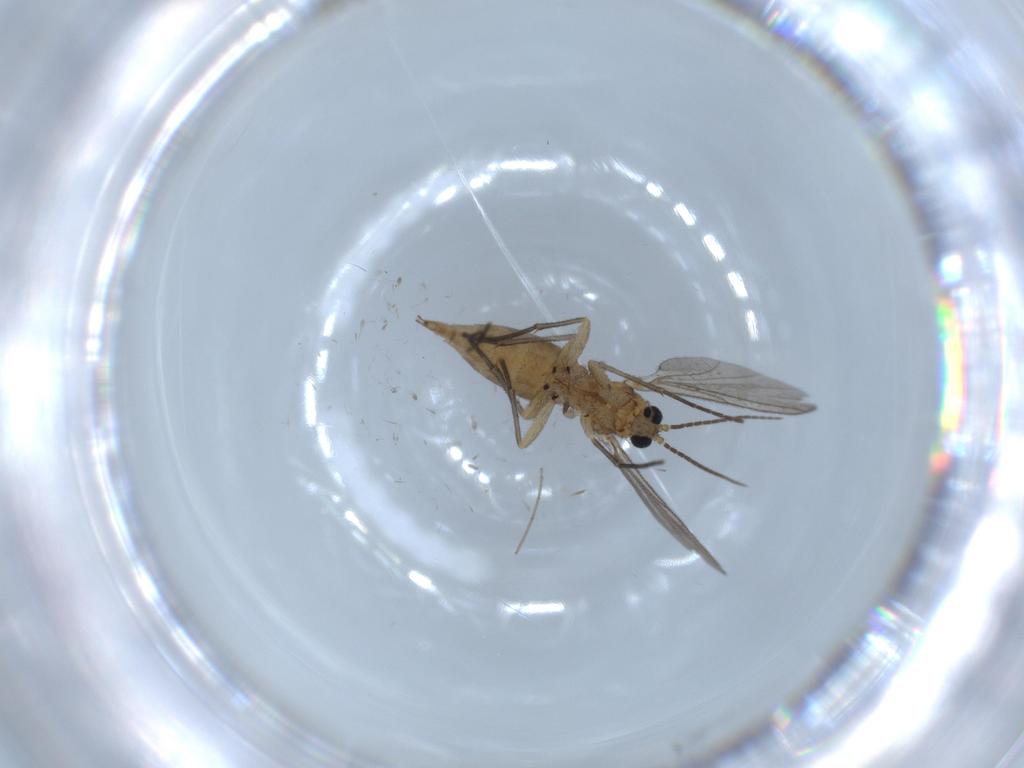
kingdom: Animalia
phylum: Arthropoda
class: Insecta
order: Diptera
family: Sciaridae
